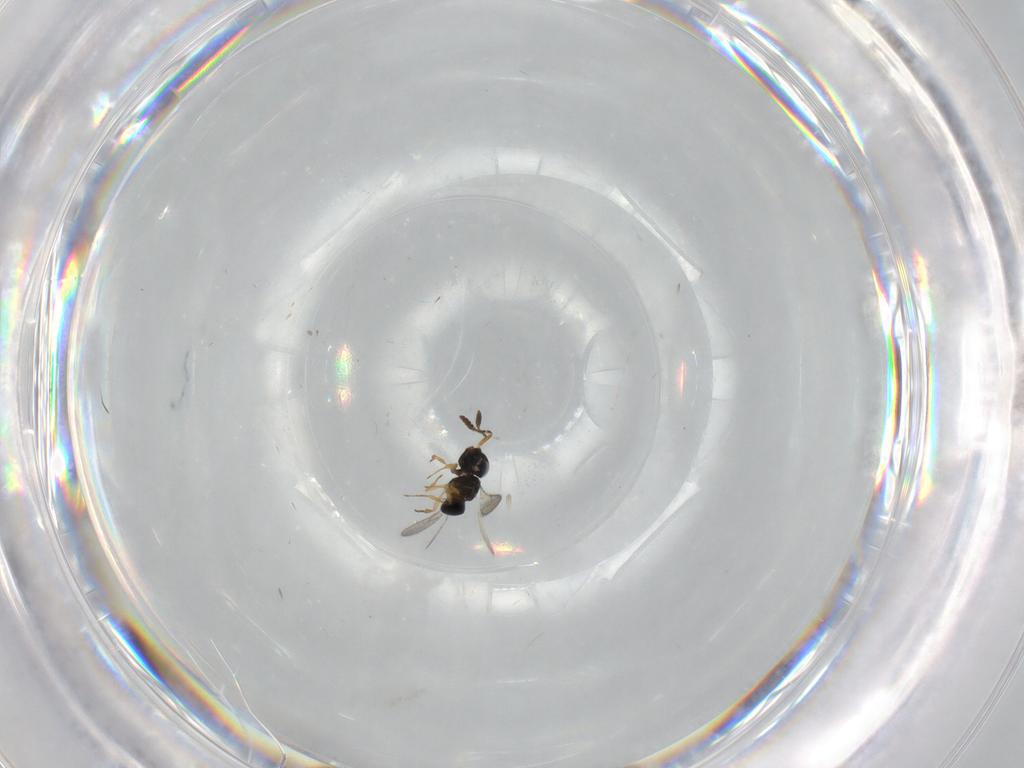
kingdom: Animalia
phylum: Arthropoda
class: Insecta
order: Hymenoptera
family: Scelionidae
